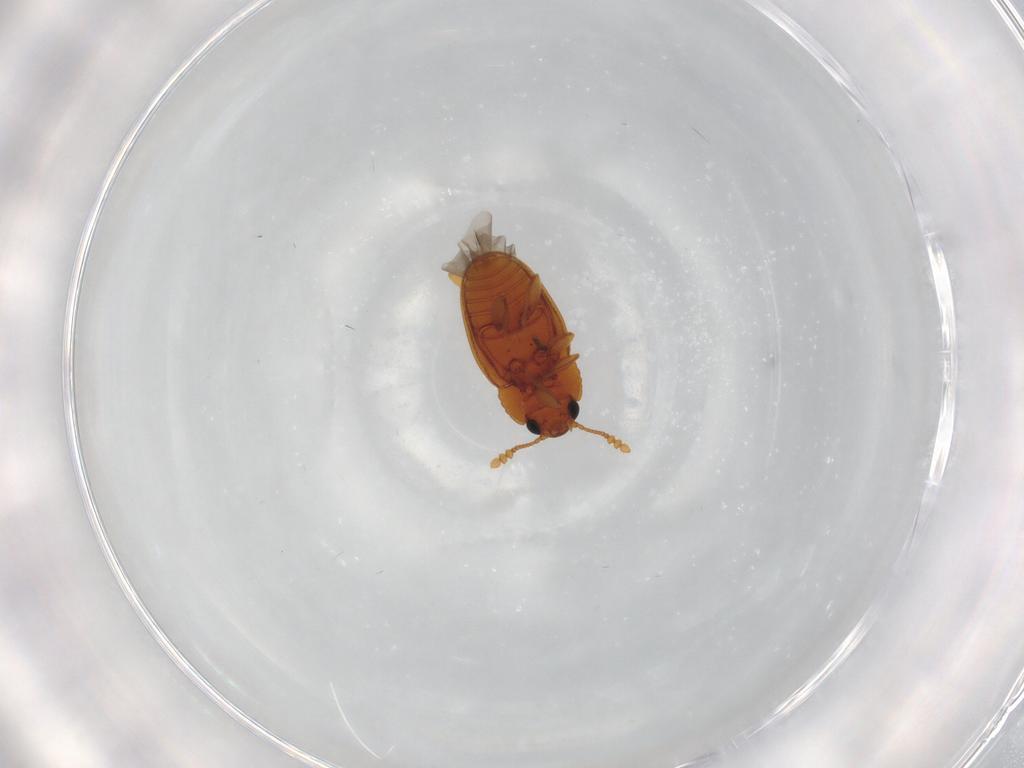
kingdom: Animalia
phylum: Arthropoda
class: Insecta
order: Coleoptera
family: Erotylidae
